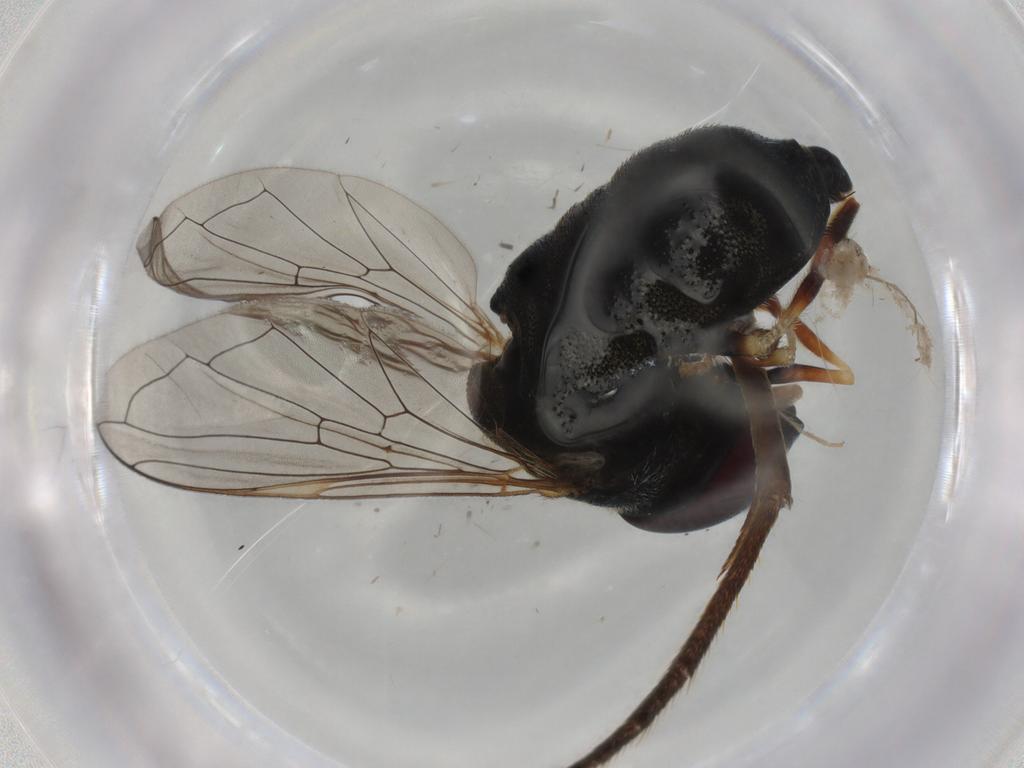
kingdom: Animalia
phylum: Arthropoda
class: Insecta
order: Diptera
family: Syrphidae
